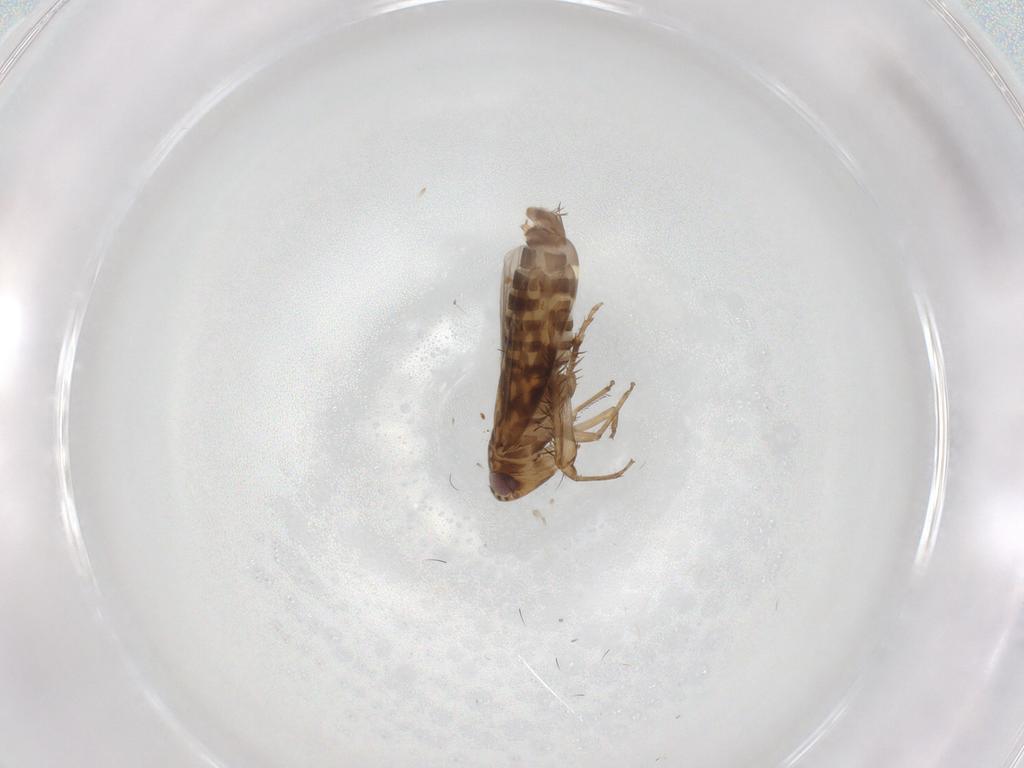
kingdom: Animalia
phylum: Arthropoda
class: Insecta
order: Hemiptera
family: Cicadellidae
